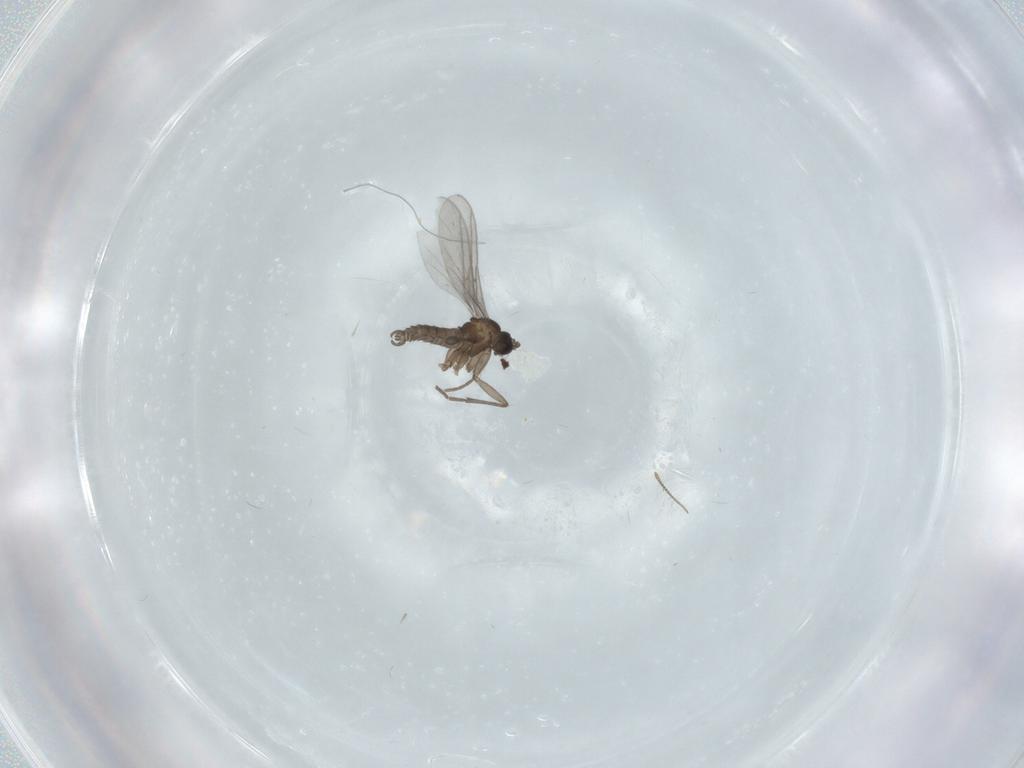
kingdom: Animalia
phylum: Arthropoda
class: Insecta
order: Diptera
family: Sciaridae
